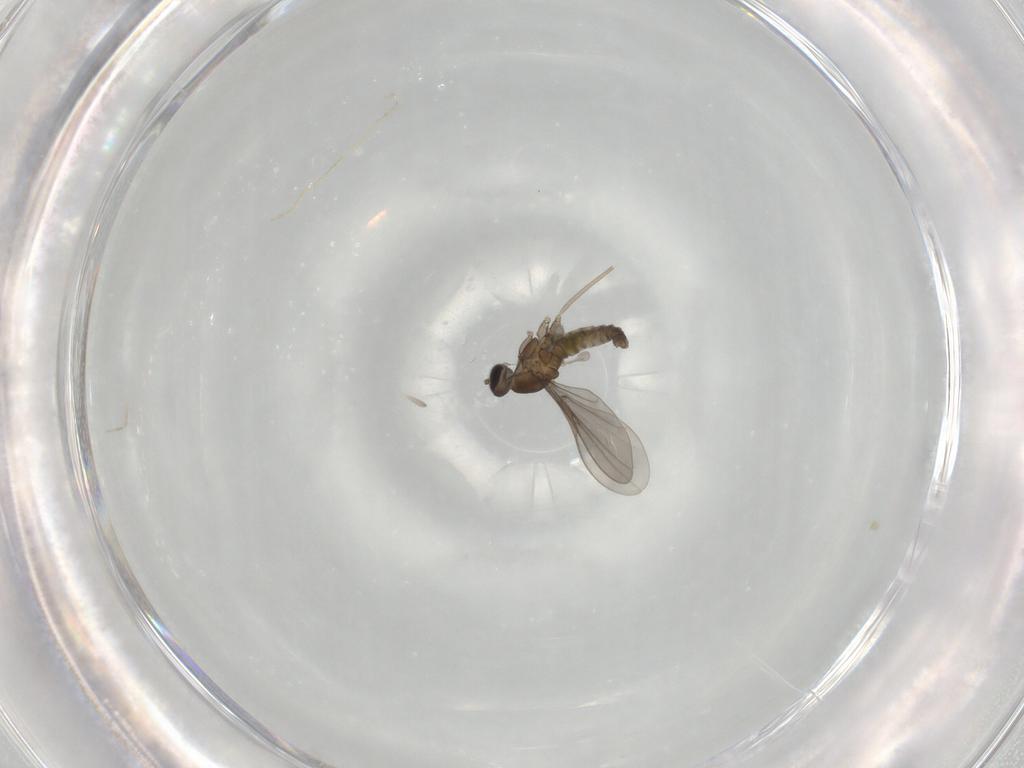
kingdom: Animalia
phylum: Arthropoda
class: Insecta
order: Diptera
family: Cecidomyiidae
